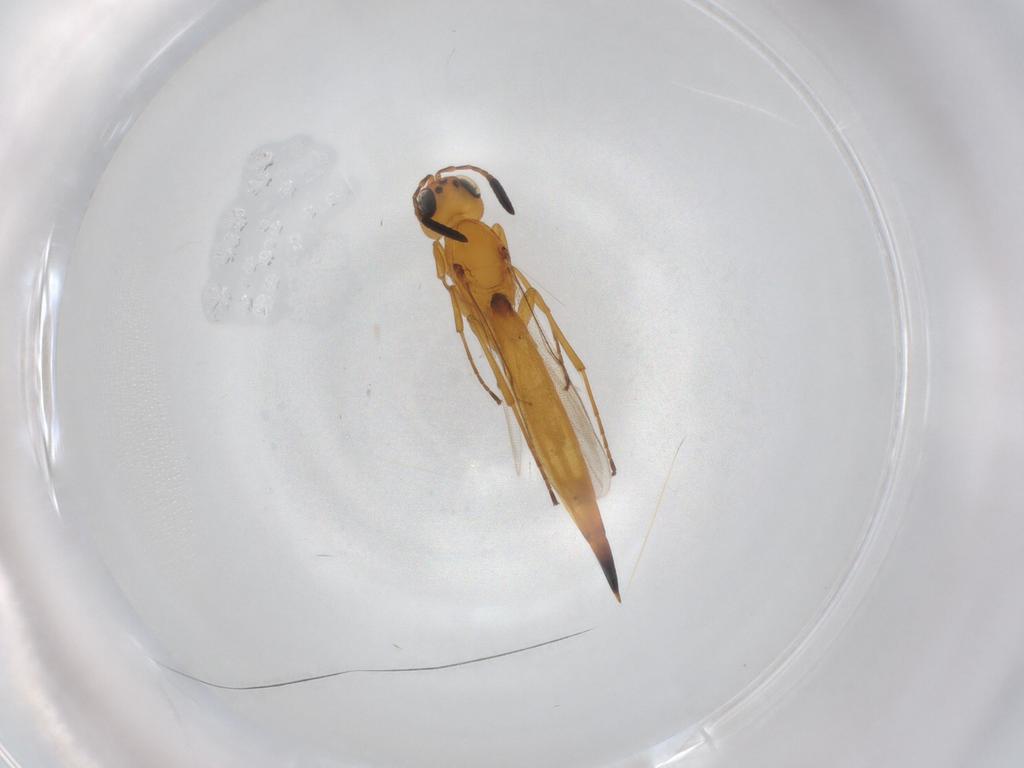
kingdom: Animalia
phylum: Arthropoda
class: Insecta
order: Hymenoptera
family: Scelionidae
